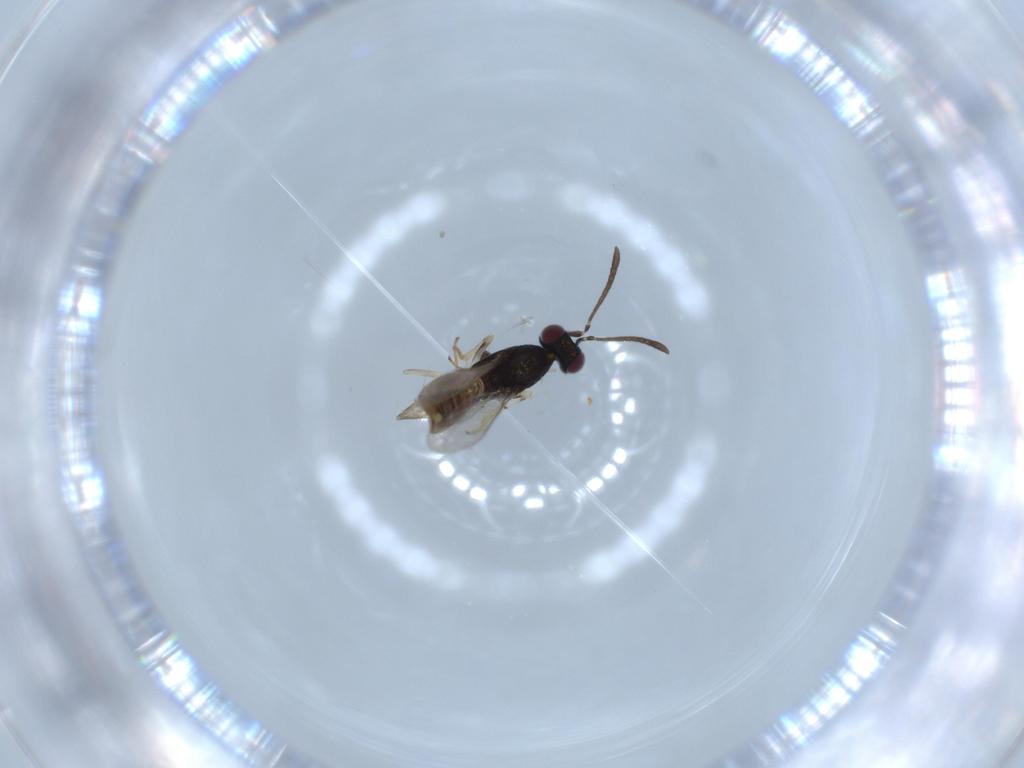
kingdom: Animalia
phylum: Arthropoda
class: Insecta
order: Hymenoptera
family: Eupelmidae
